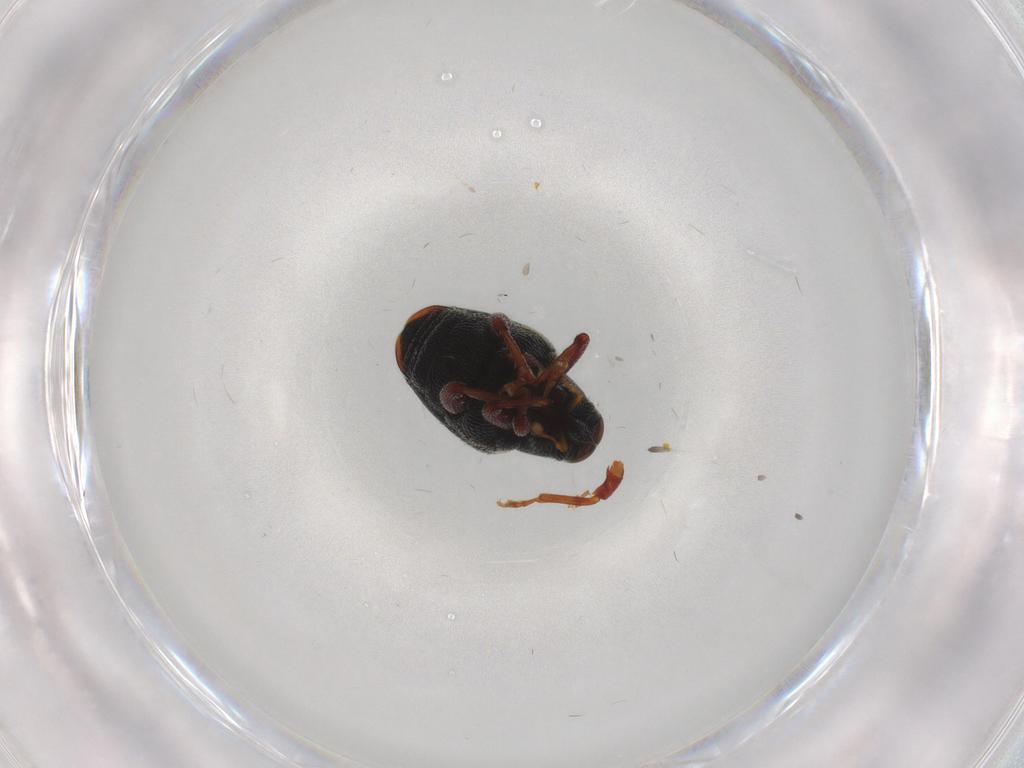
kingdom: Animalia
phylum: Arthropoda
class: Insecta
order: Coleoptera
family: Curculionidae
